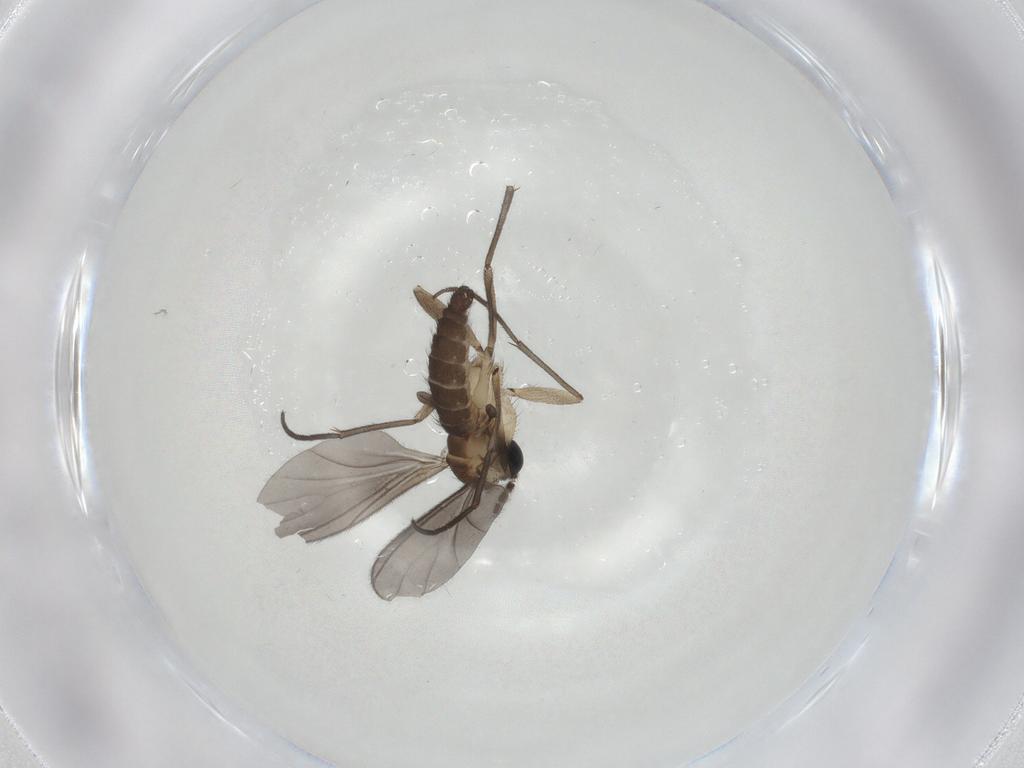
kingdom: Animalia
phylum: Arthropoda
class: Insecta
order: Diptera
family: Sciaridae
